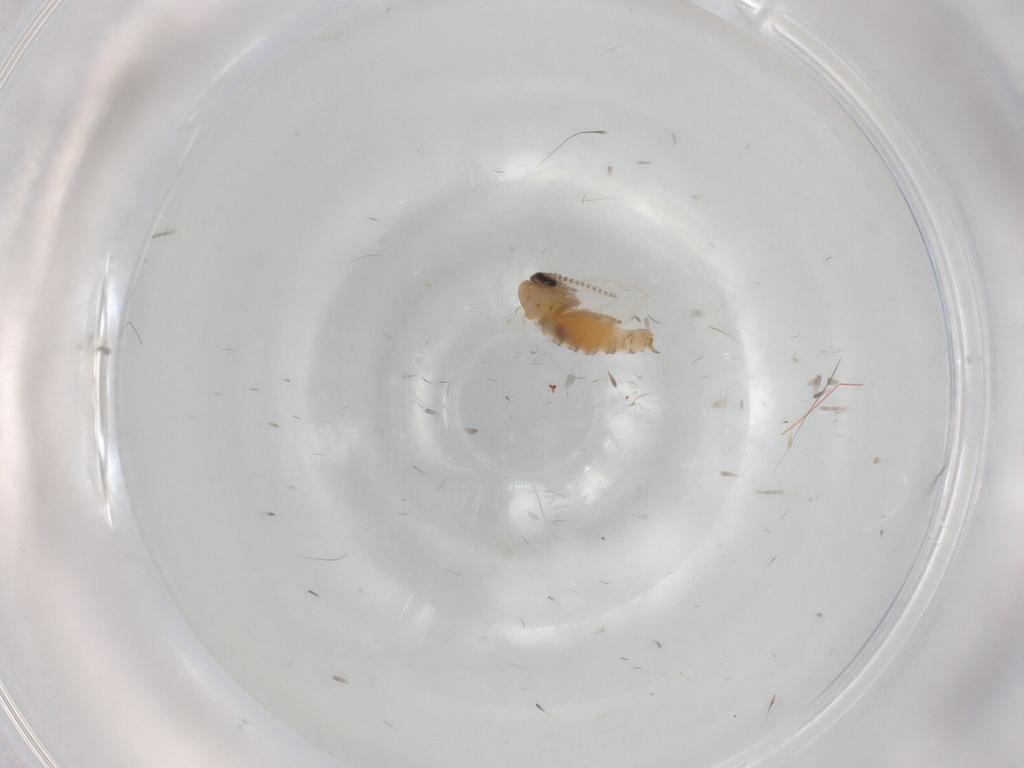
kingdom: Animalia
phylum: Arthropoda
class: Insecta
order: Diptera
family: Psychodidae
